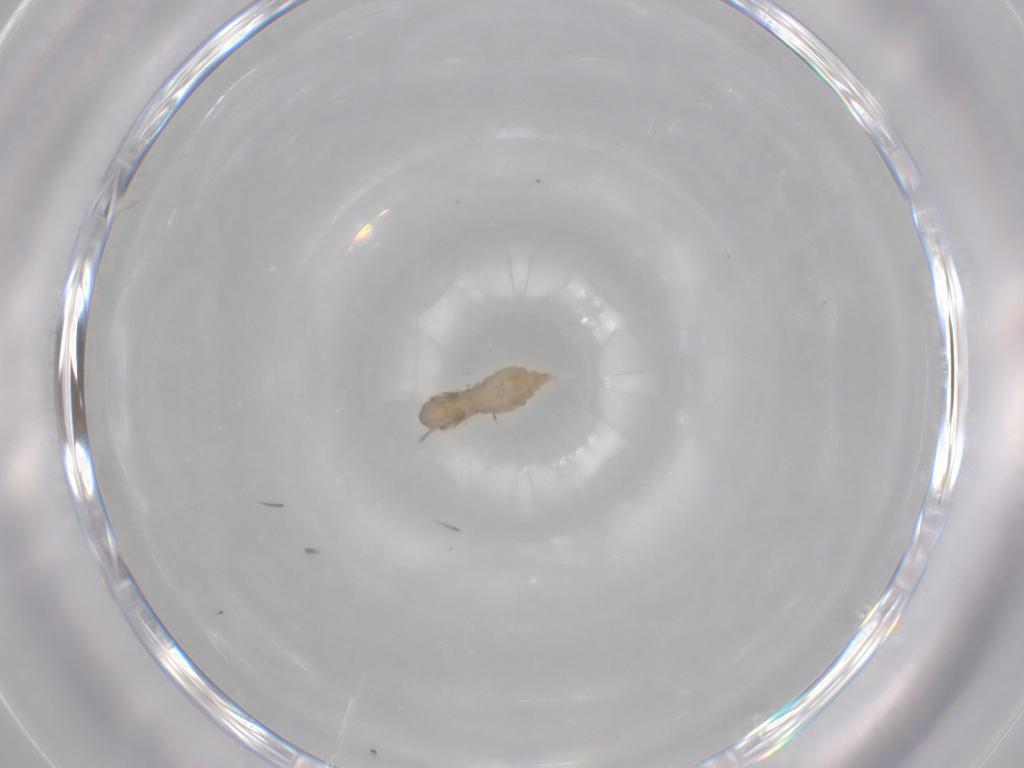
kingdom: Animalia
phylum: Arthropoda
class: Insecta
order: Diptera
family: Cecidomyiidae
